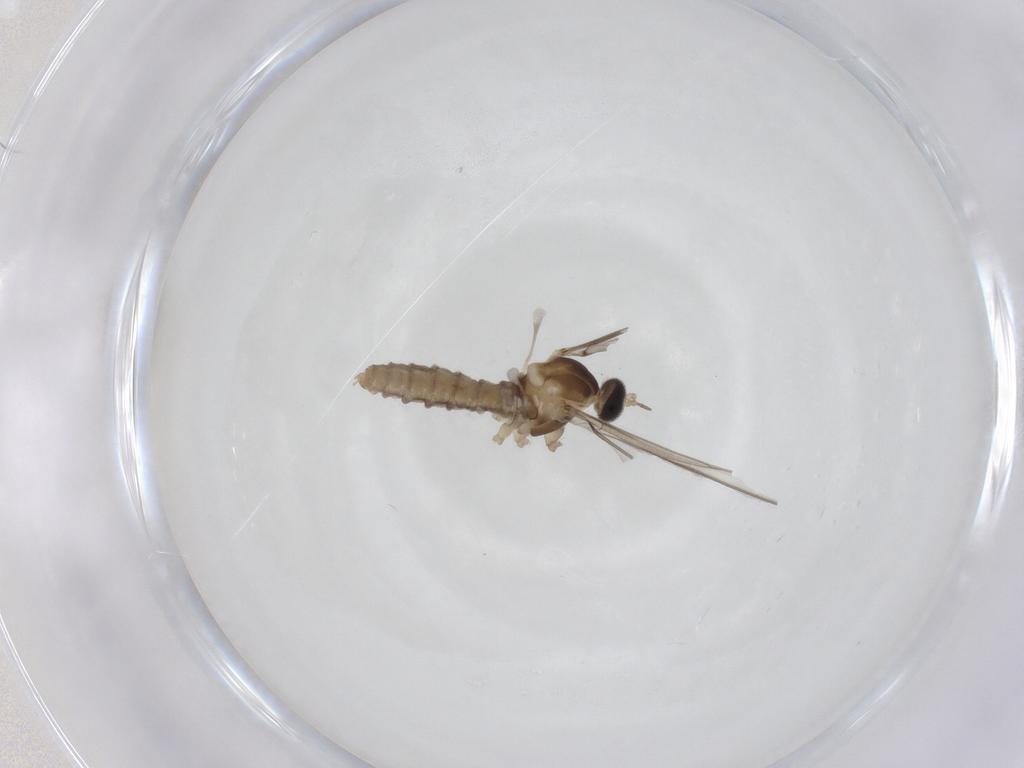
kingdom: Animalia
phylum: Arthropoda
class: Insecta
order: Diptera
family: Cecidomyiidae
